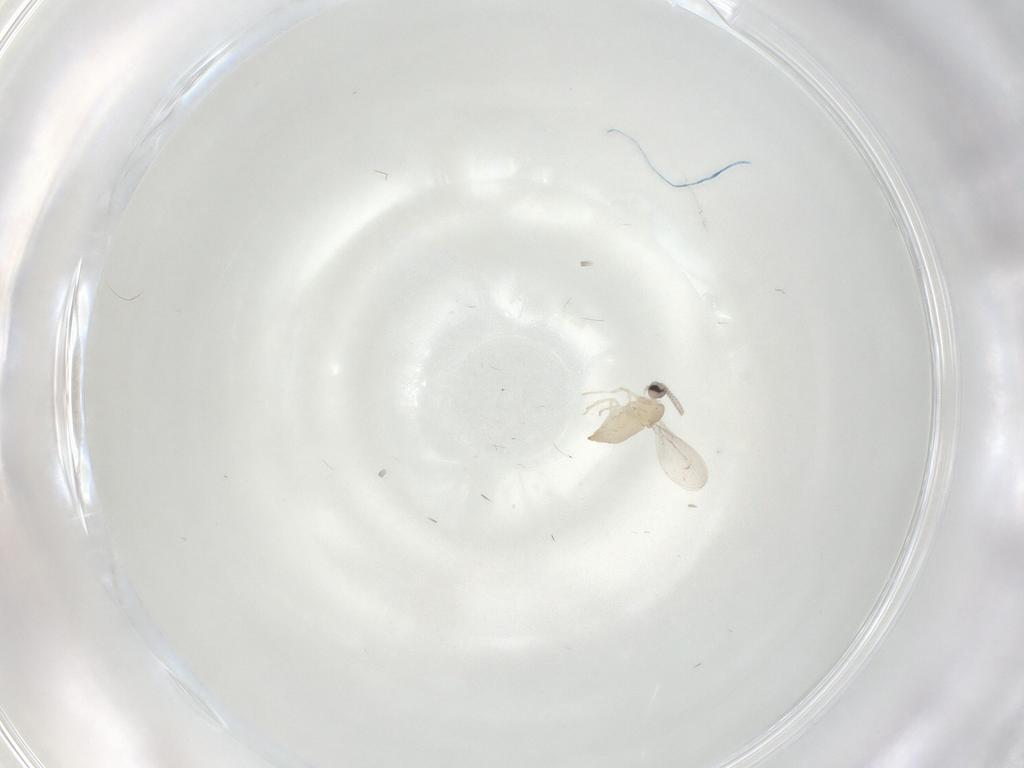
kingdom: Animalia
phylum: Arthropoda
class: Insecta
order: Diptera
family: Cecidomyiidae
